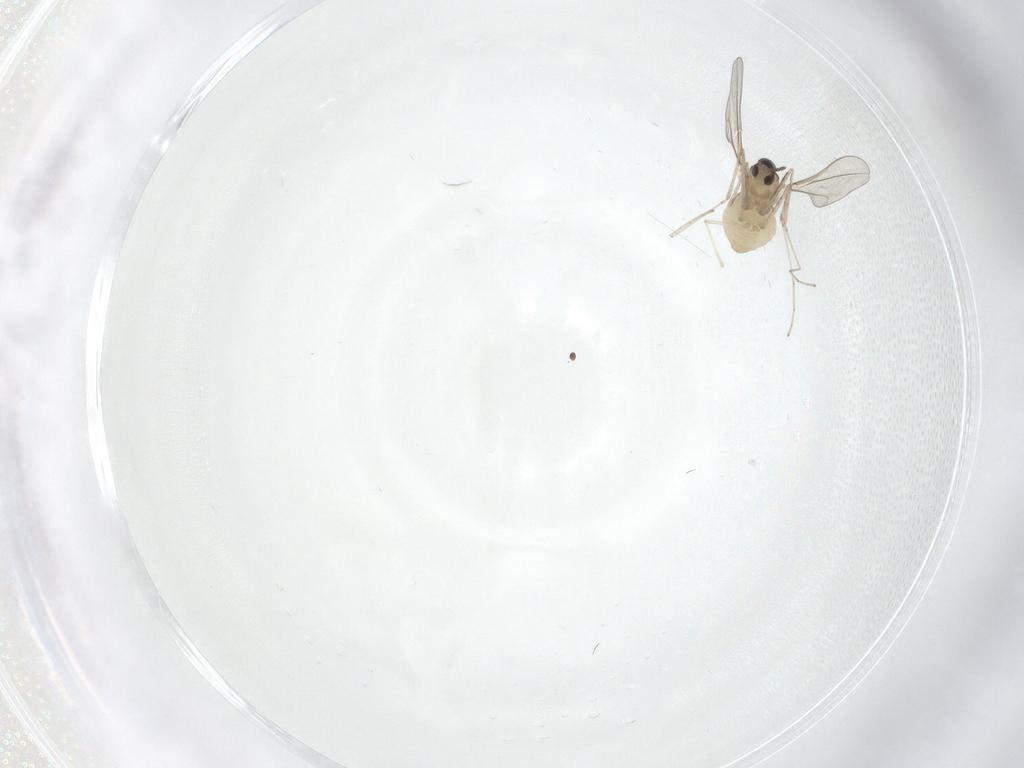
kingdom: Animalia
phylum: Arthropoda
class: Insecta
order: Diptera
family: Cecidomyiidae
